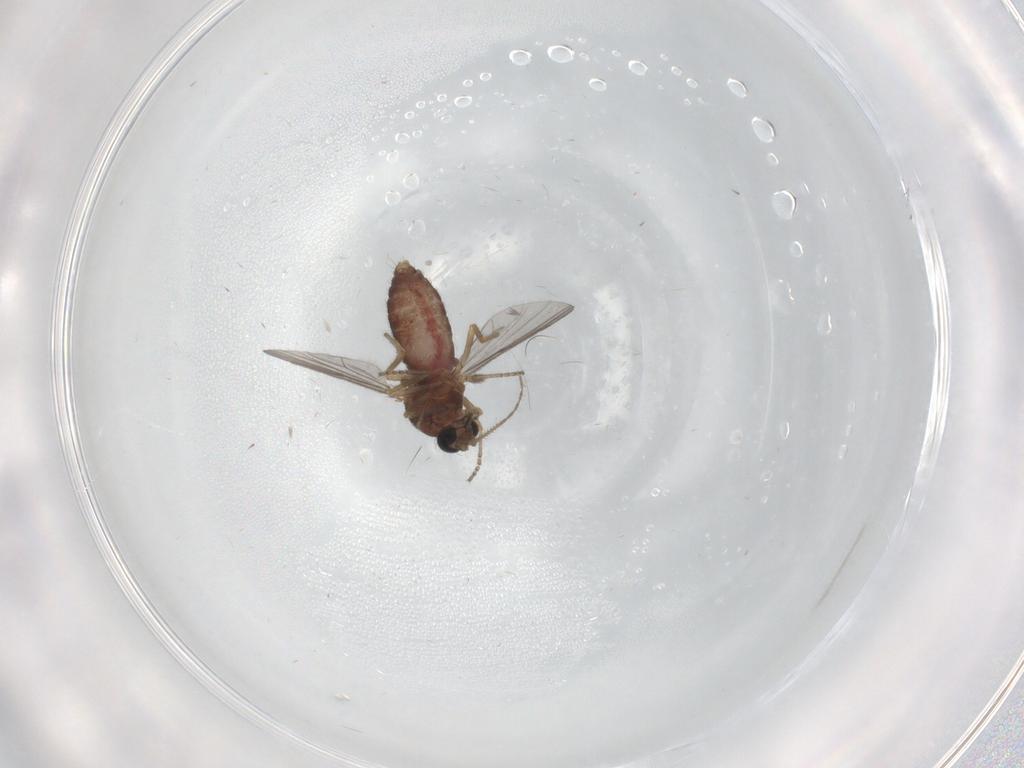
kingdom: Animalia
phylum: Arthropoda
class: Insecta
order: Diptera
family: Ceratopogonidae
